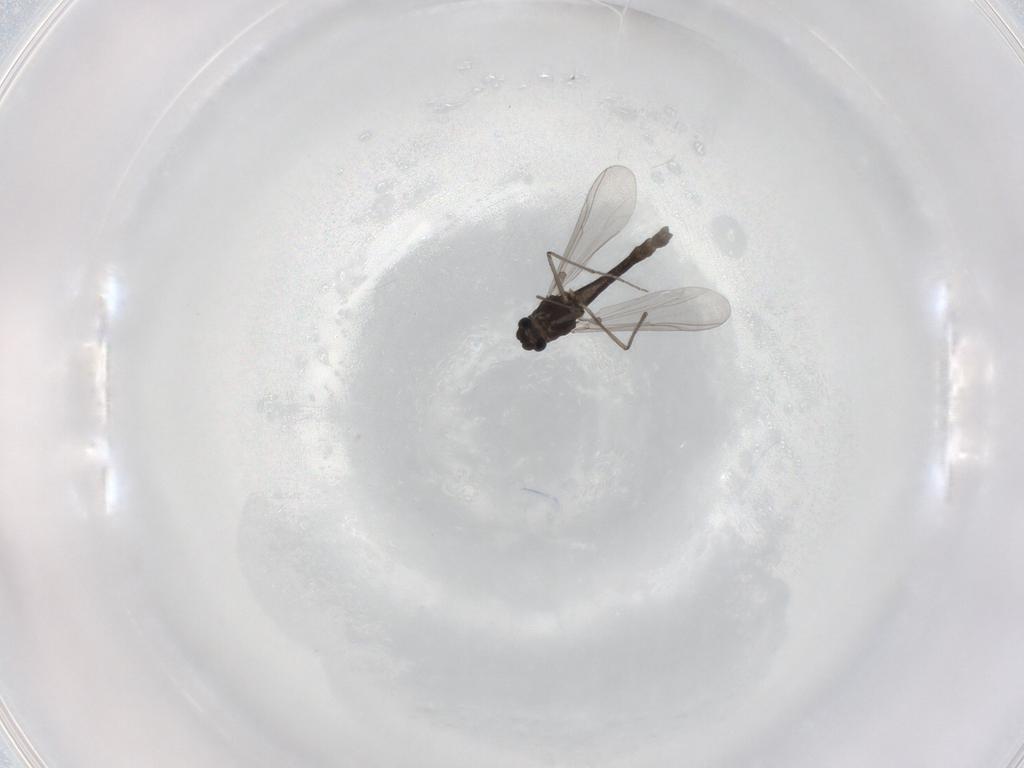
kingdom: Animalia
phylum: Arthropoda
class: Insecta
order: Diptera
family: Chironomidae
